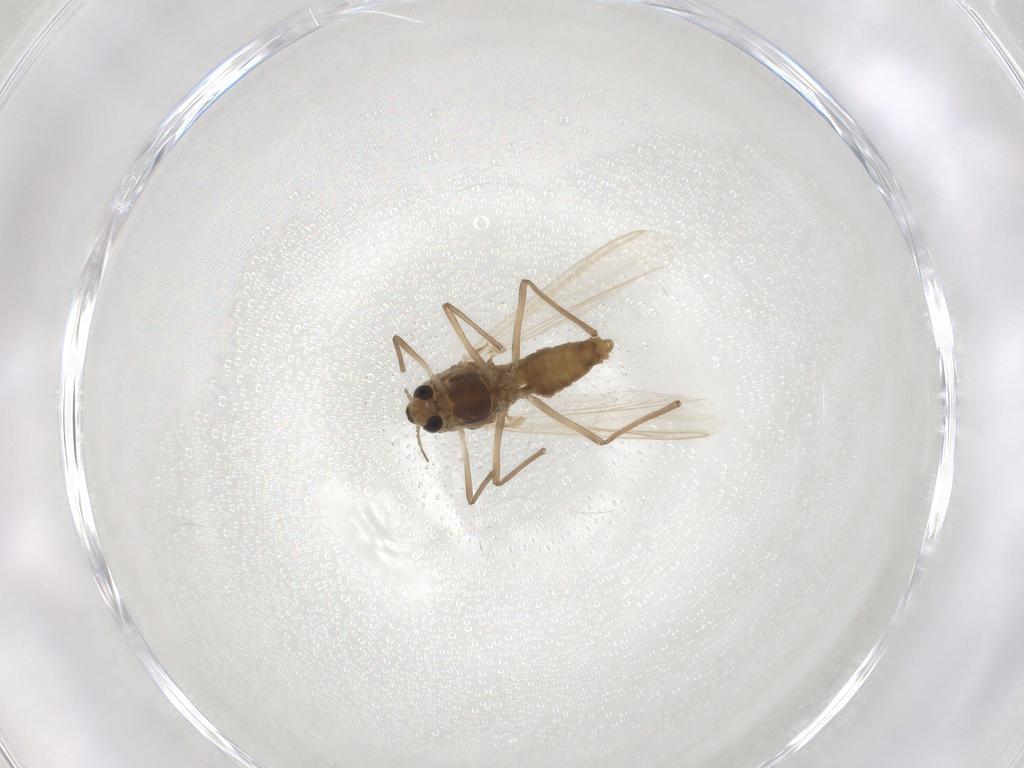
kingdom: Animalia
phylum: Arthropoda
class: Insecta
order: Diptera
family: Chironomidae
